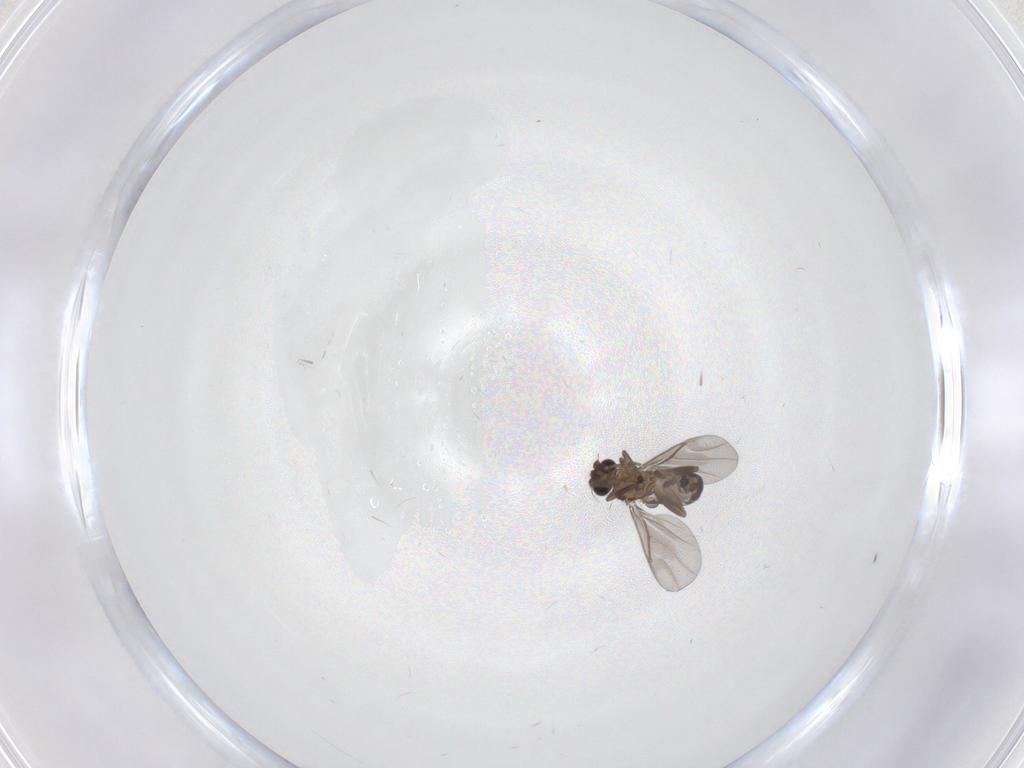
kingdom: Animalia
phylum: Arthropoda
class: Insecta
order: Diptera
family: Cecidomyiidae
